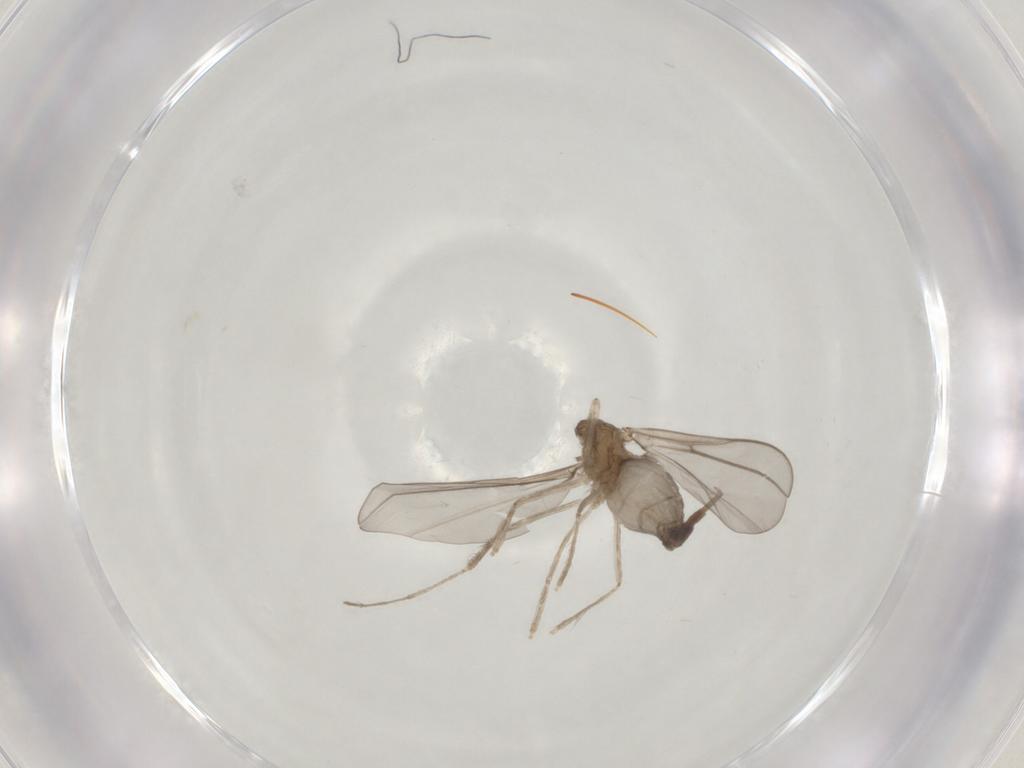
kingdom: Animalia
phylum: Arthropoda
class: Insecta
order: Diptera
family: Cecidomyiidae
